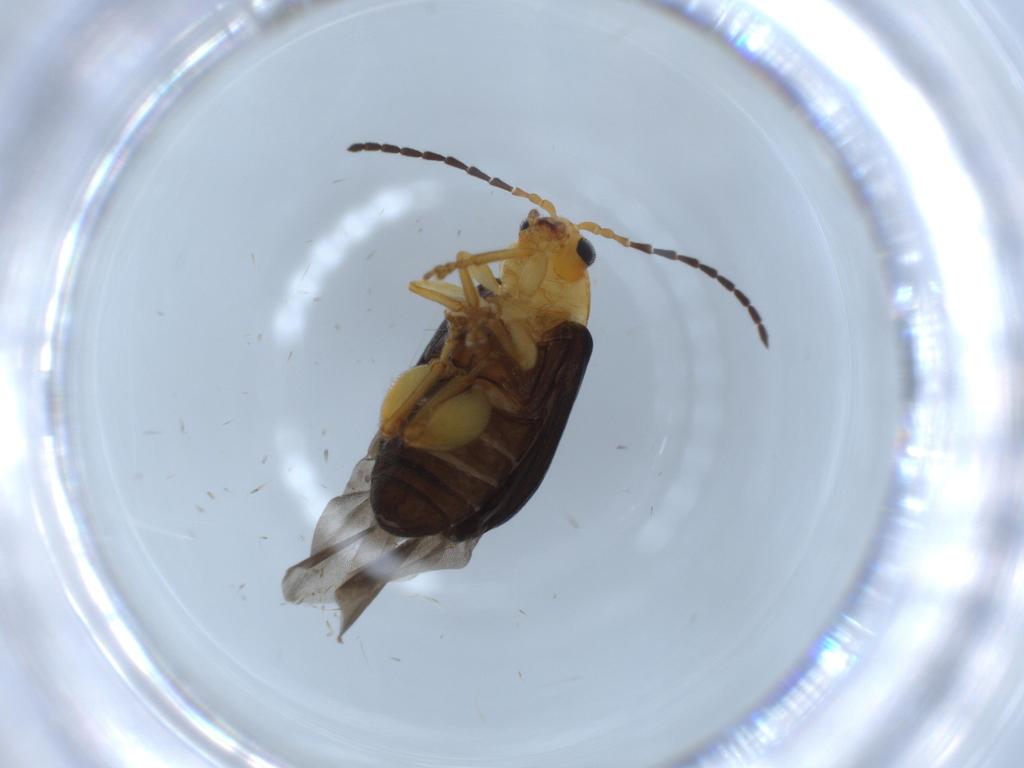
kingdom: Animalia
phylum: Arthropoda
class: Insecta
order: Coleoptera
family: Chrysomelidae
